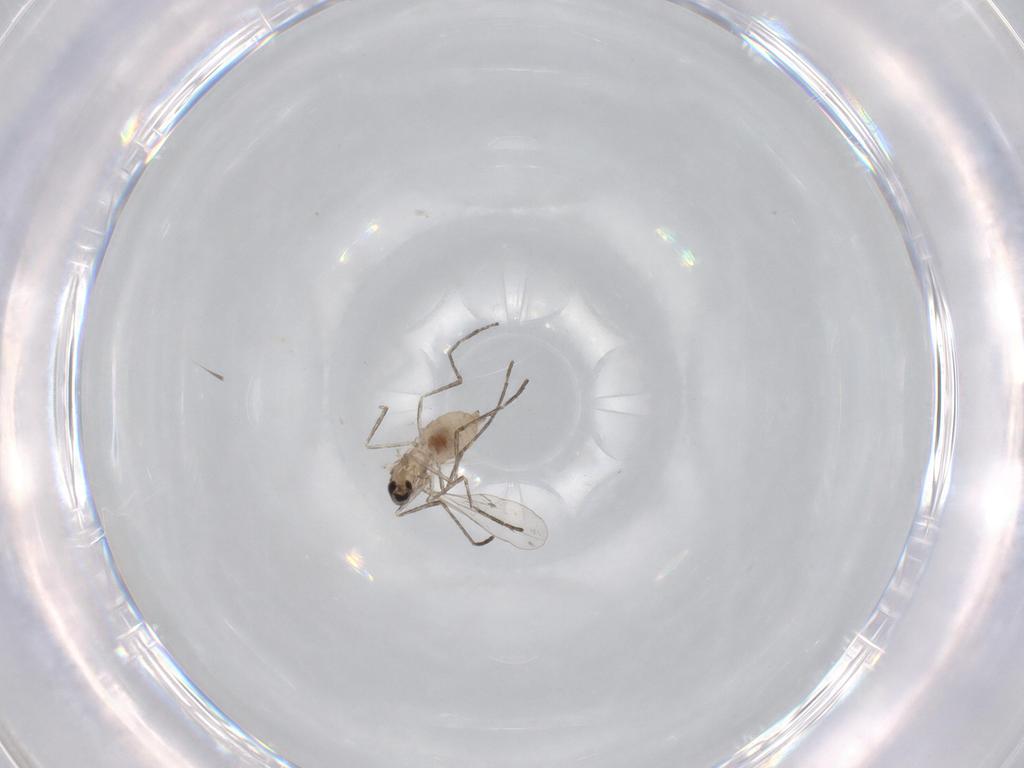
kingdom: Animalia
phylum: Arthropoda
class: Insecta
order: Diptera
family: Cecidomyiidae
